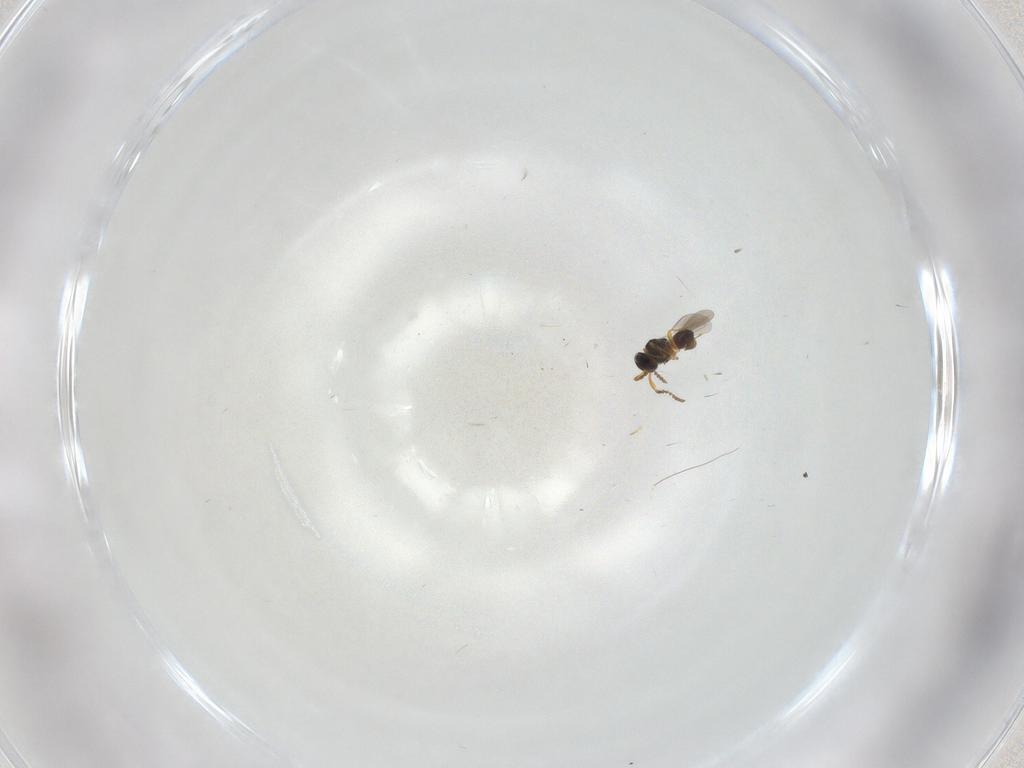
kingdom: Animalia
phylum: Arthropoda
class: Insecta
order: Hymenoptera
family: Platygastridae
